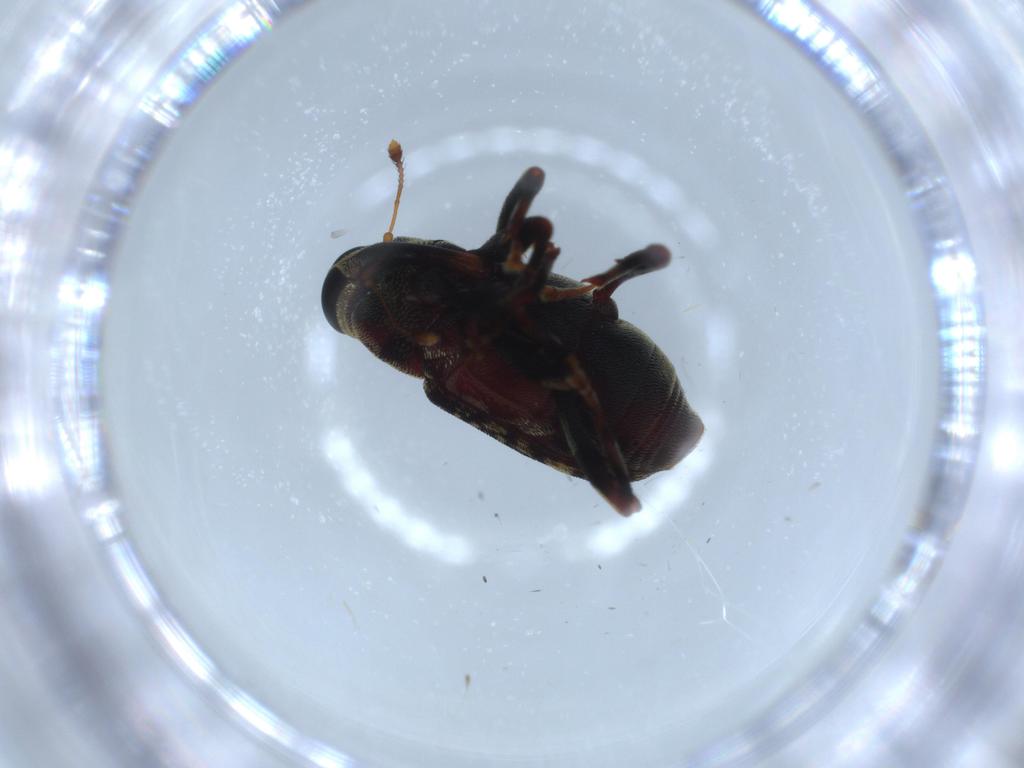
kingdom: Animalia
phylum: Arthropoda
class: Insecta
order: Coleoptera
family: Curculionidae
